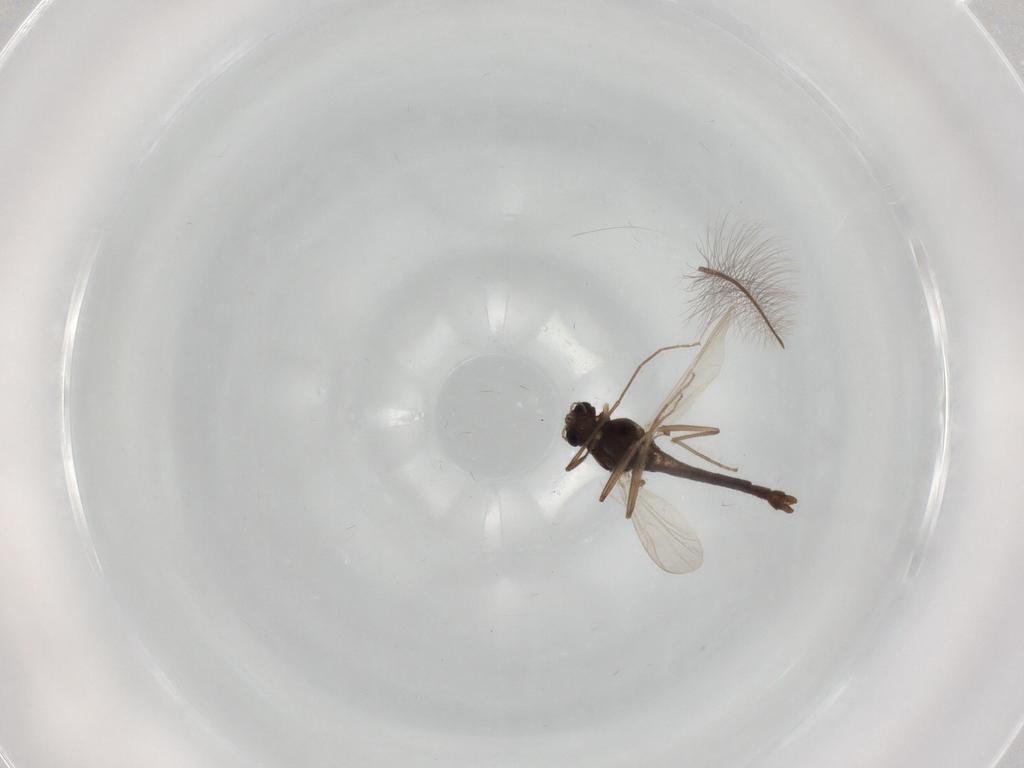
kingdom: Animalia
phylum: Arthropoda
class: Insecta
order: Diptera
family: Chironomidae
